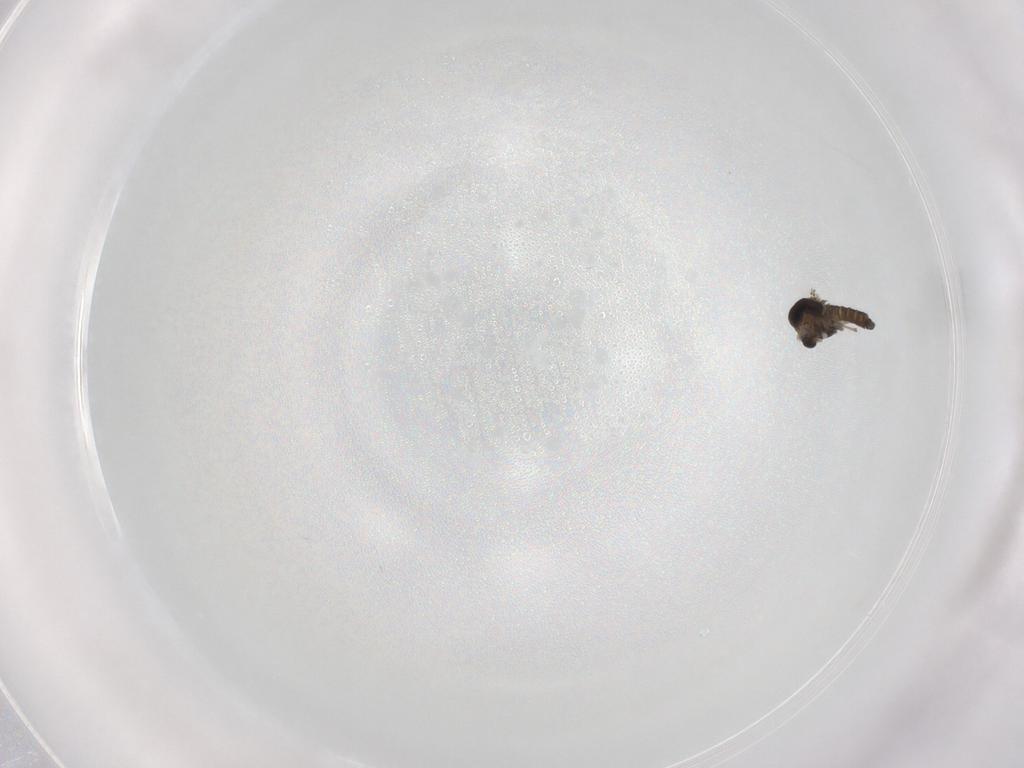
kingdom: Animalia
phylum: Arthropoda
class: Insecta
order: Diptera
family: Chironomidae
